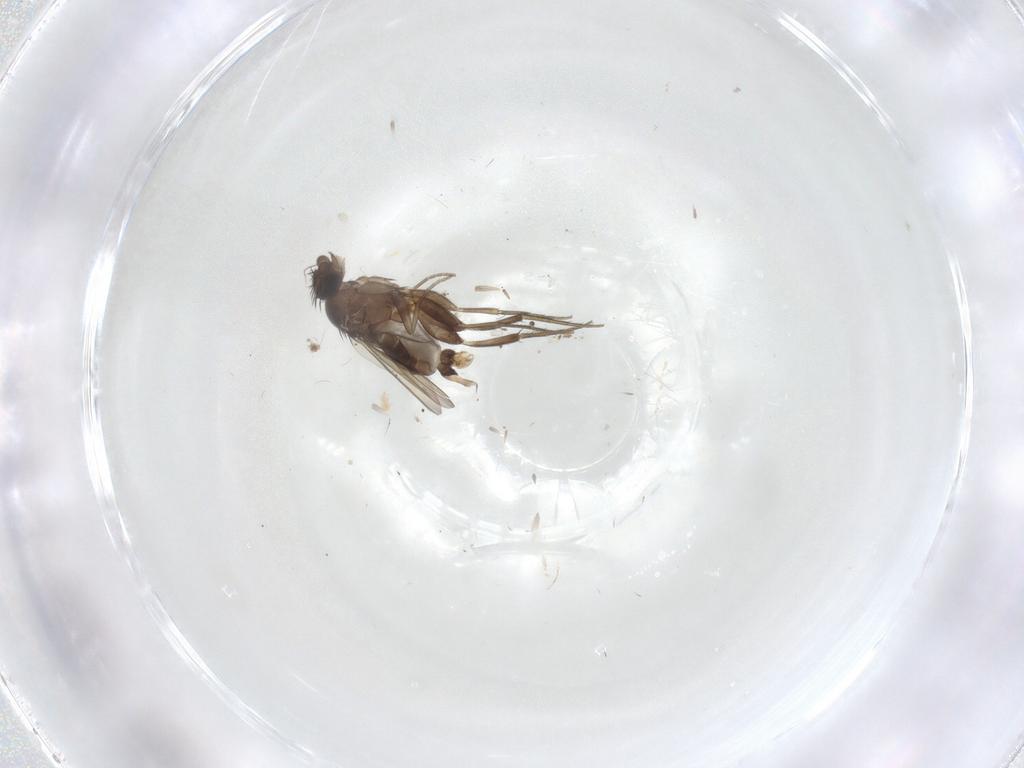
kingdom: Animalia
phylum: Arthropoda
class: Insecta
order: Diptera
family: Phoridae
